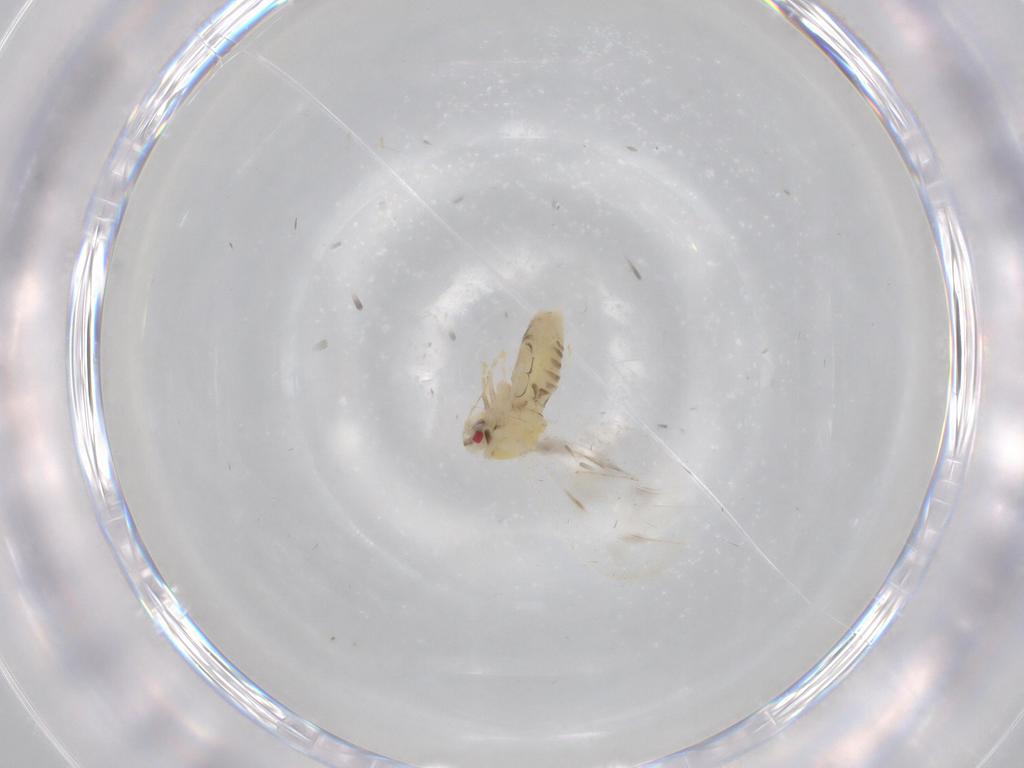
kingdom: Animalia
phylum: Arthropoda
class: Insecta
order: Hemiptera
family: Aleyrodidae
